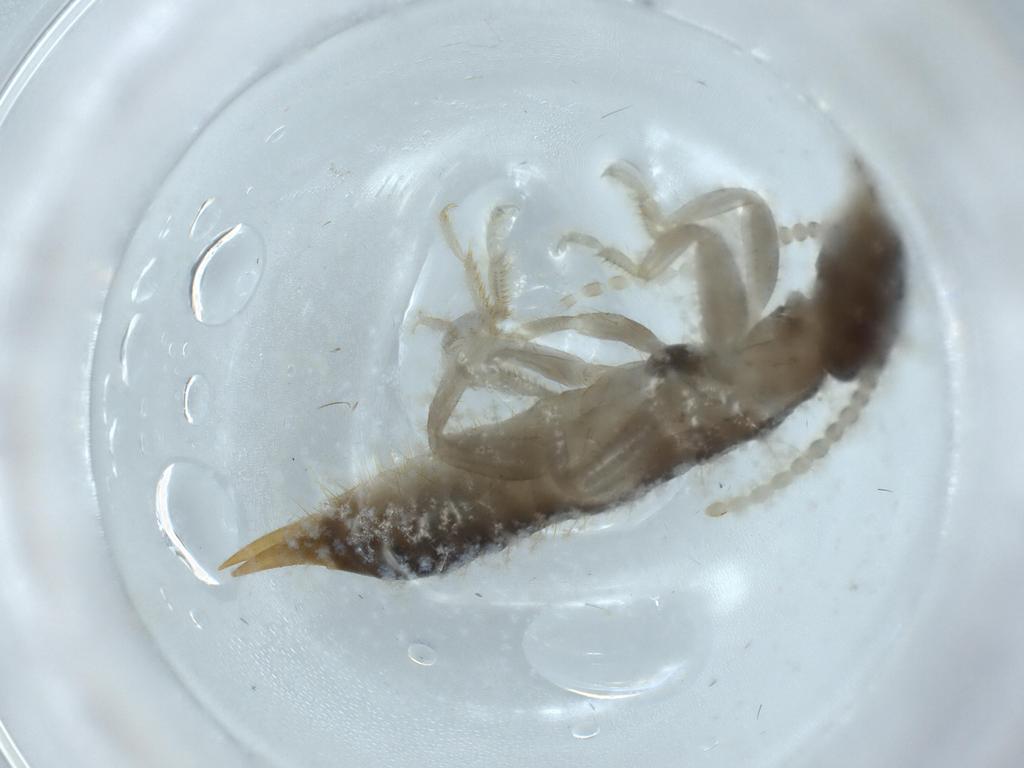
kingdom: Animalia
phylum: Arthropoda
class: Insecta
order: Dermaptera
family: Labiduridae
